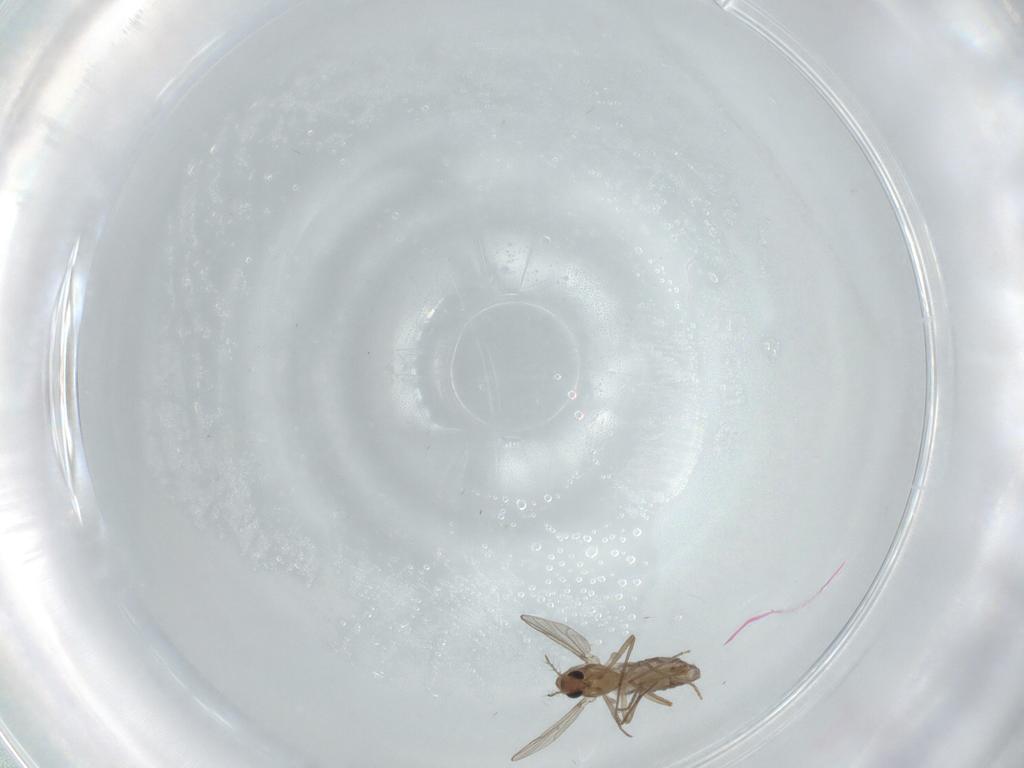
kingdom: Animalia
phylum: Arthropoda
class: Insecta
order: Diptera
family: Chironomidae
